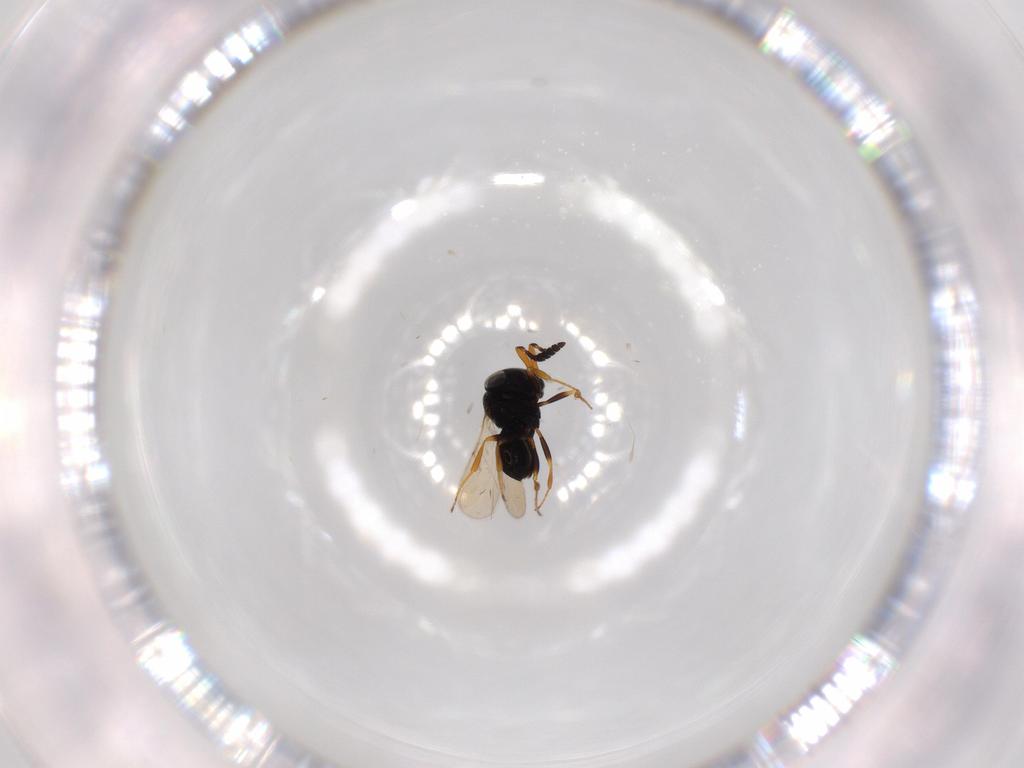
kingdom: Animalia
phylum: Arthropoda
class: Insecta
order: Hymenoptera
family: Scelionidae
